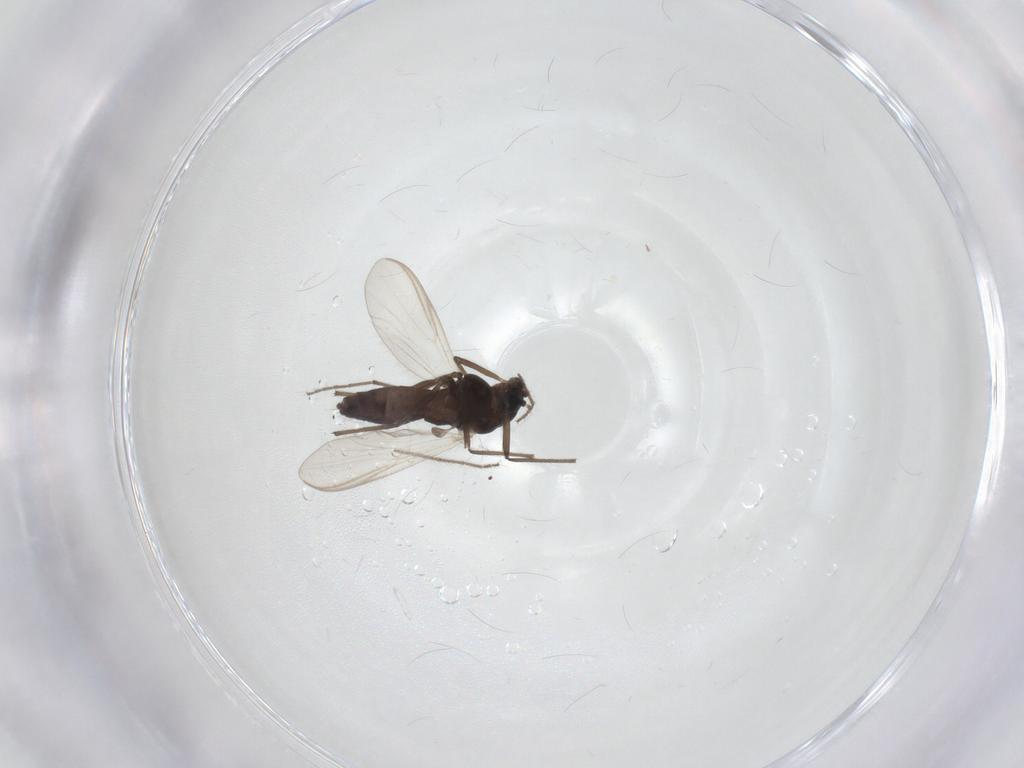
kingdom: Animalia
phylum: Arthropoda
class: Insecta
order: Diptera
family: Chironomidae
